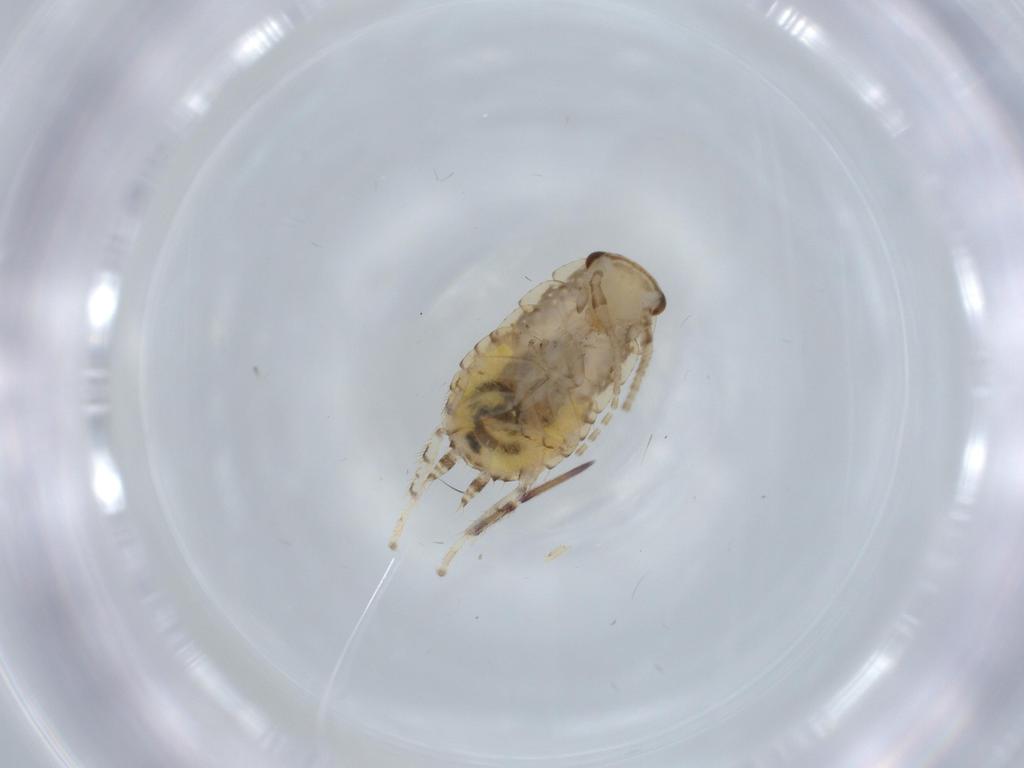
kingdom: Animalia
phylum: Arthropoda
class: Insecta
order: Blattodea
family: Ectobiidae
